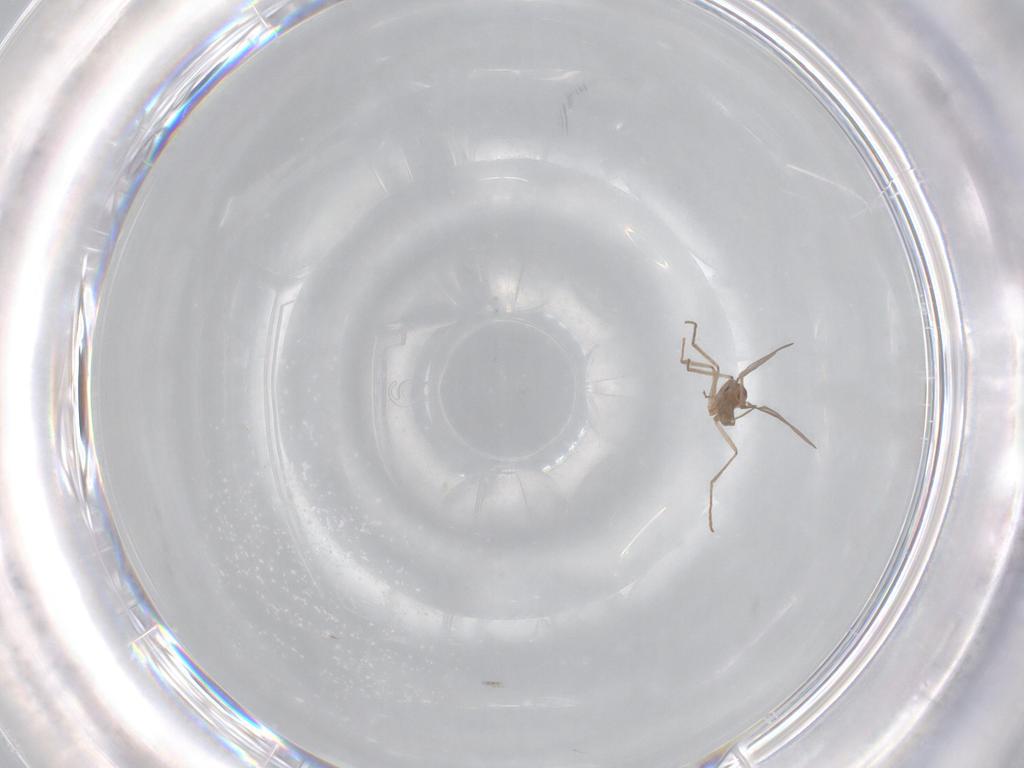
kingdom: Animalia
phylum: Arthropoda
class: Insecta
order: Diptera
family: Cecidomyiidae
